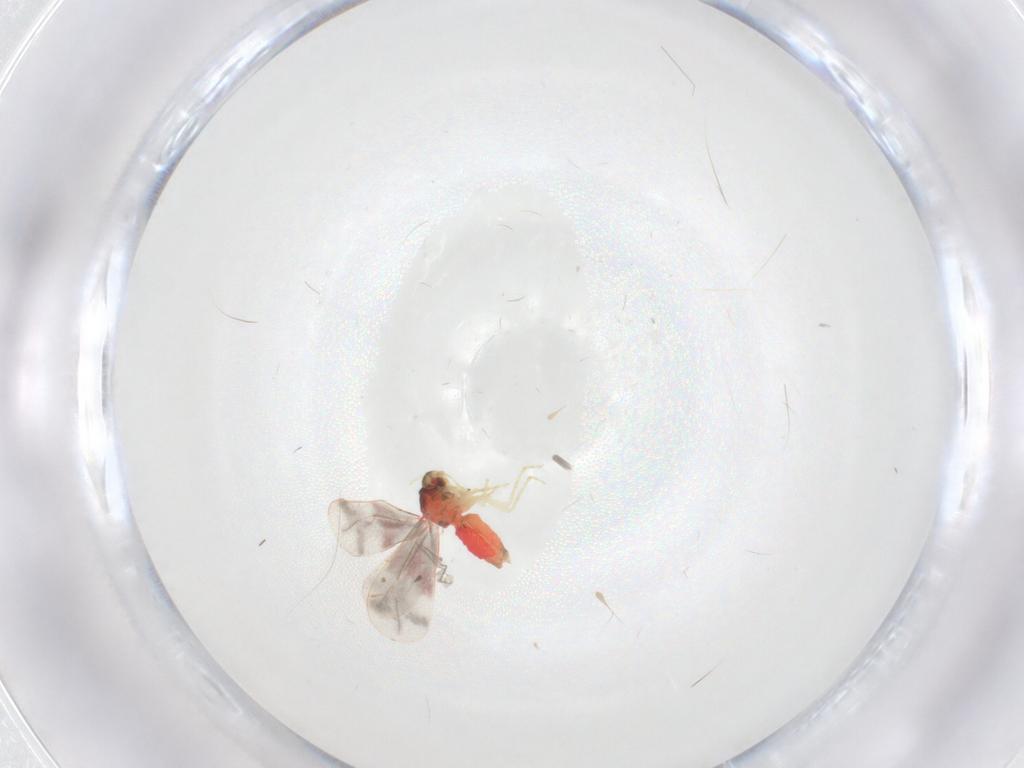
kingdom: Animalia
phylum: Arthropoda
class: Insecta
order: Hemiptera
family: Aleyrodidae
